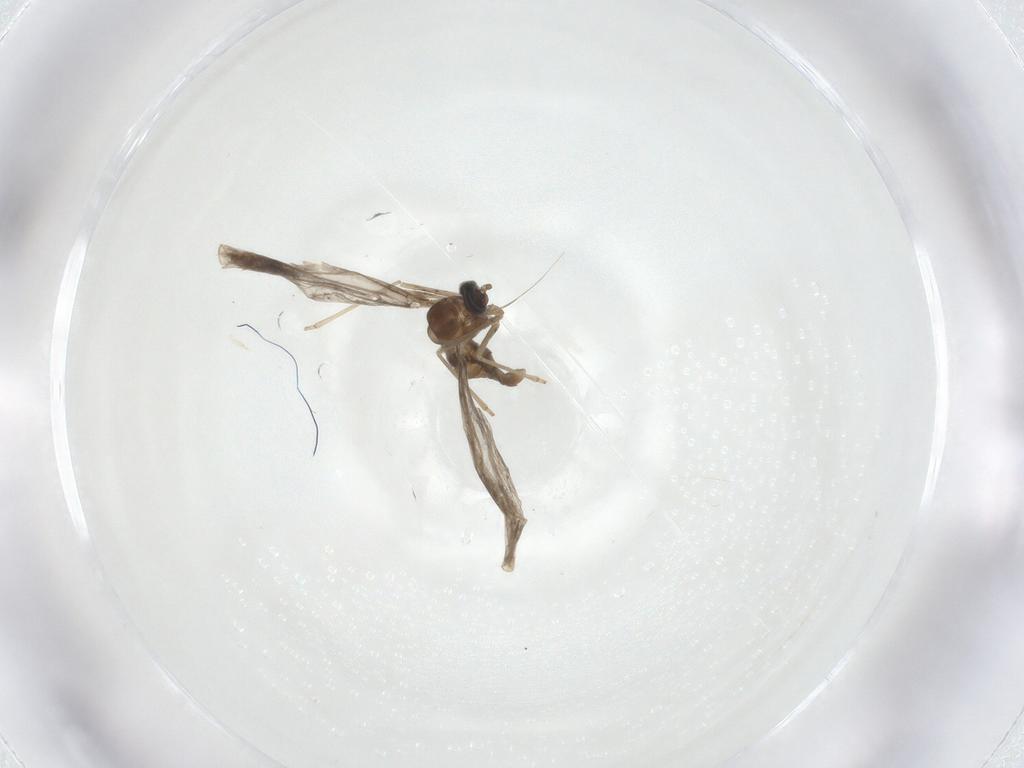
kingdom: Animalia
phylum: Arthropoda
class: Insecta
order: Diptera
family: Cecidomyiidae
